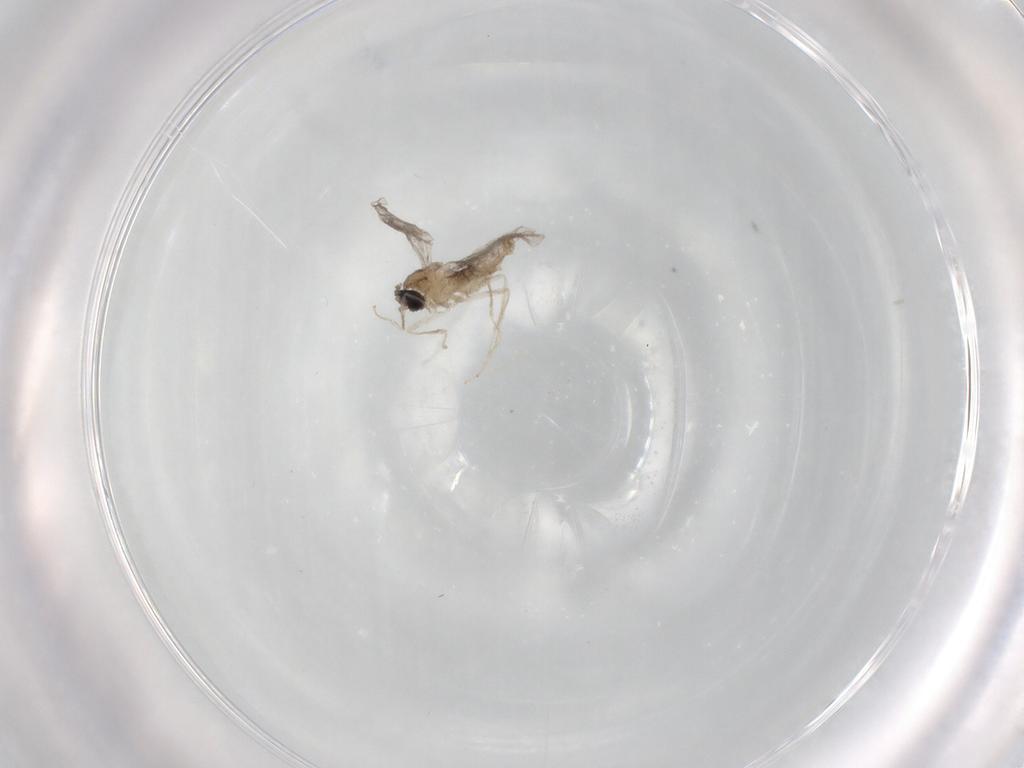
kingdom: Animalia
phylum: Arthropoda
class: Insecta
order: Diptera
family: Cecidomyiidae
